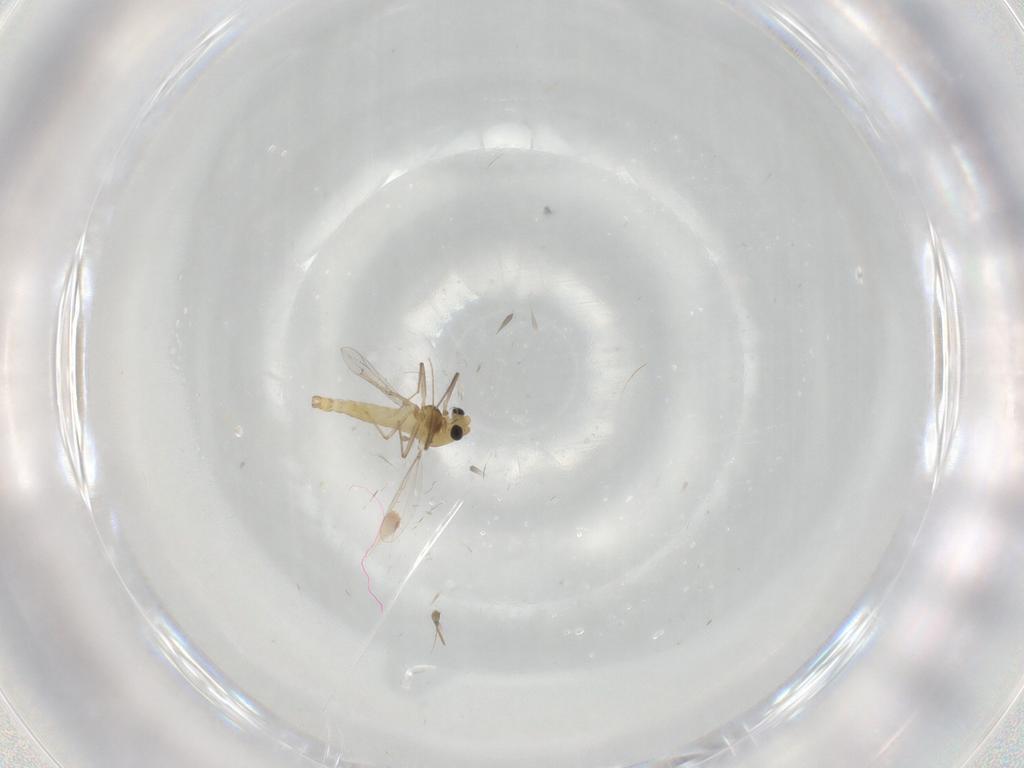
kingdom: Animalia
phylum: Arthropoda
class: Insecta
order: Diptera
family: Chironomidae
